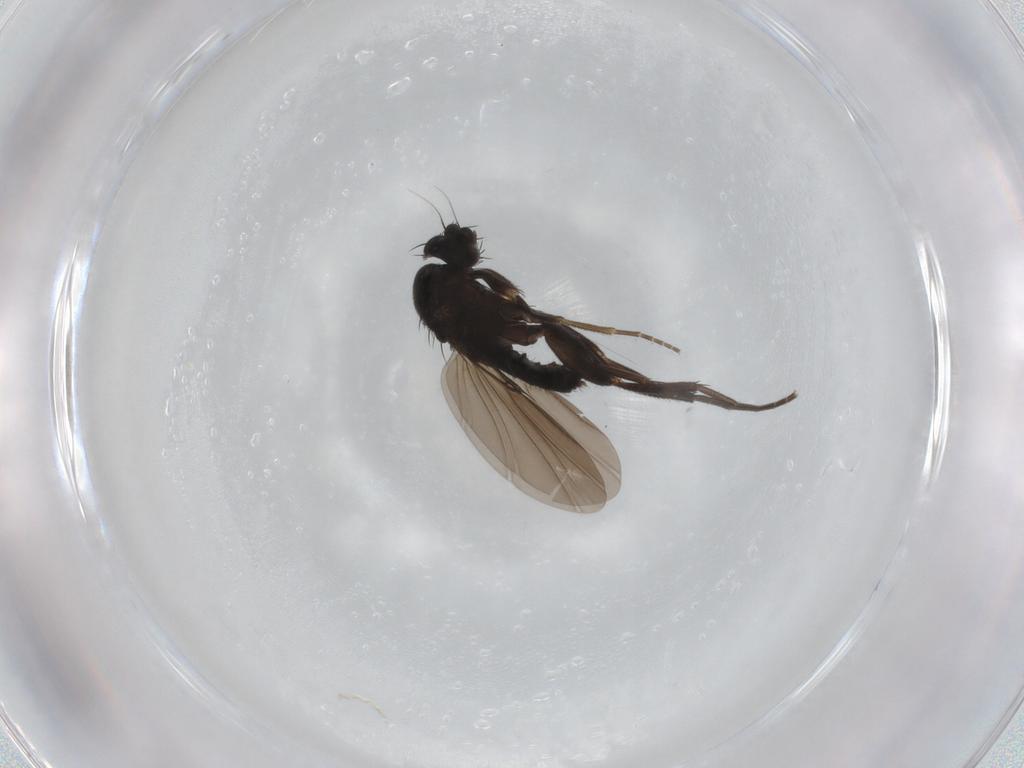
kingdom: Animalia
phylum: Arthropoda
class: Insecta
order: Diptera
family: Phoridae
